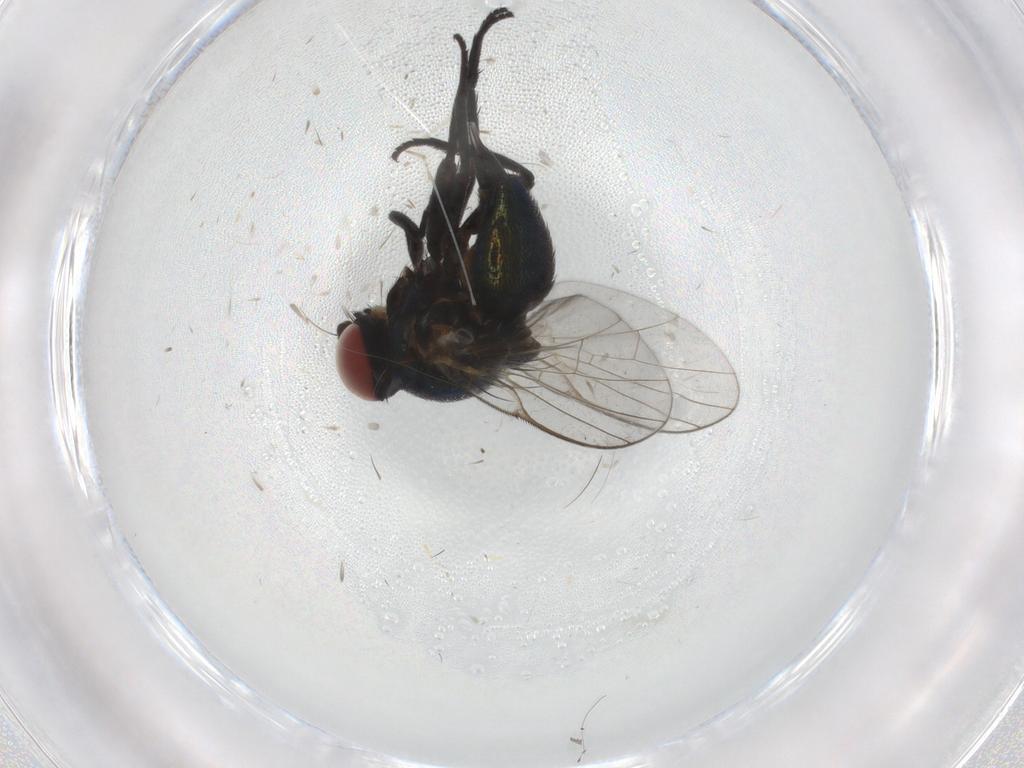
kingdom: Animalia
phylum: Arthropoda
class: Insecta
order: Diptera
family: Agromyzidae
